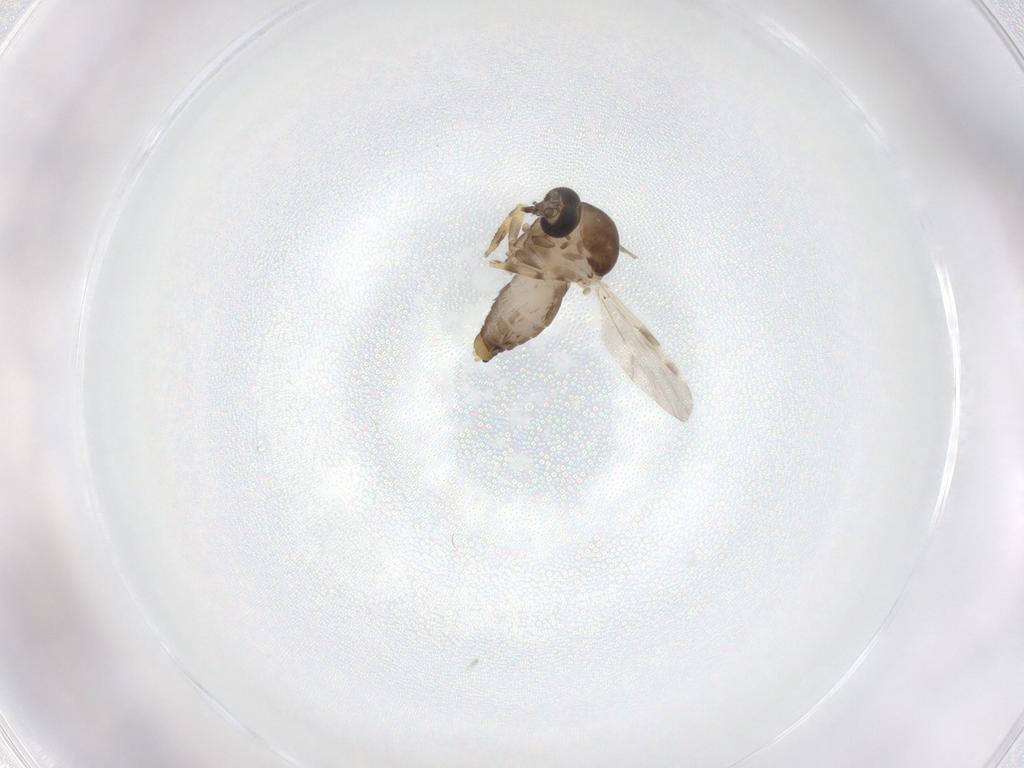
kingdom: Animalia
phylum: Arthropoda
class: Insecta
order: Diptera
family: Ceratopogonidae
